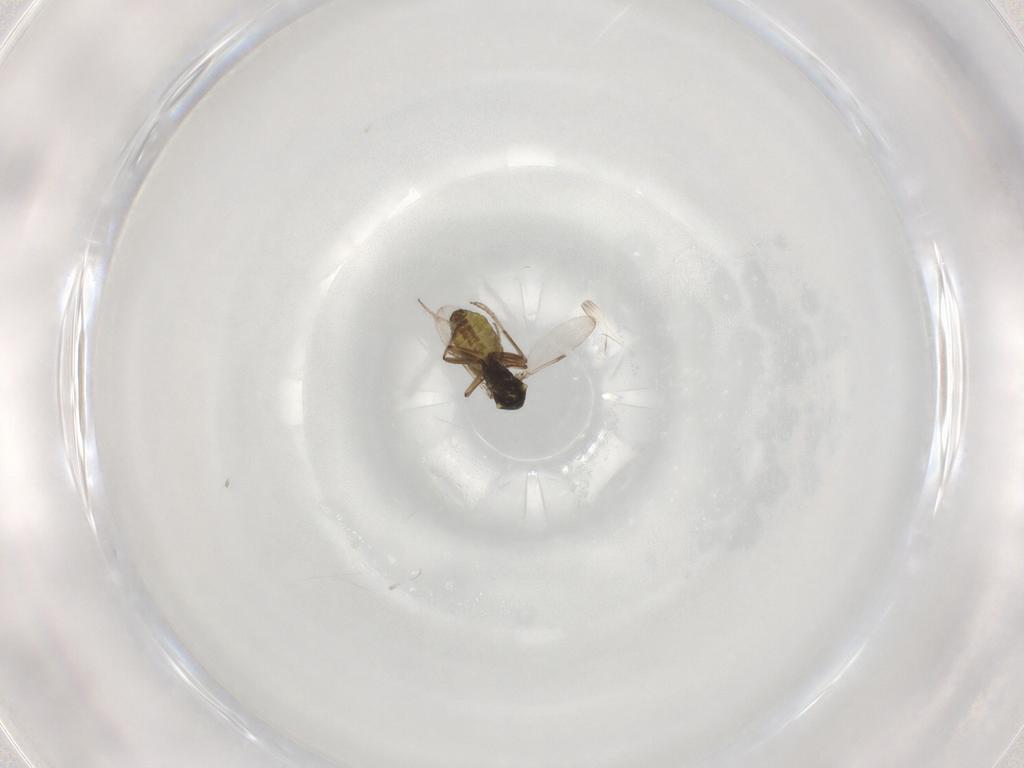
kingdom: Animalia
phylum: Arthropoda
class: Insecta
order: Diptera
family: Ceratopogonidae
